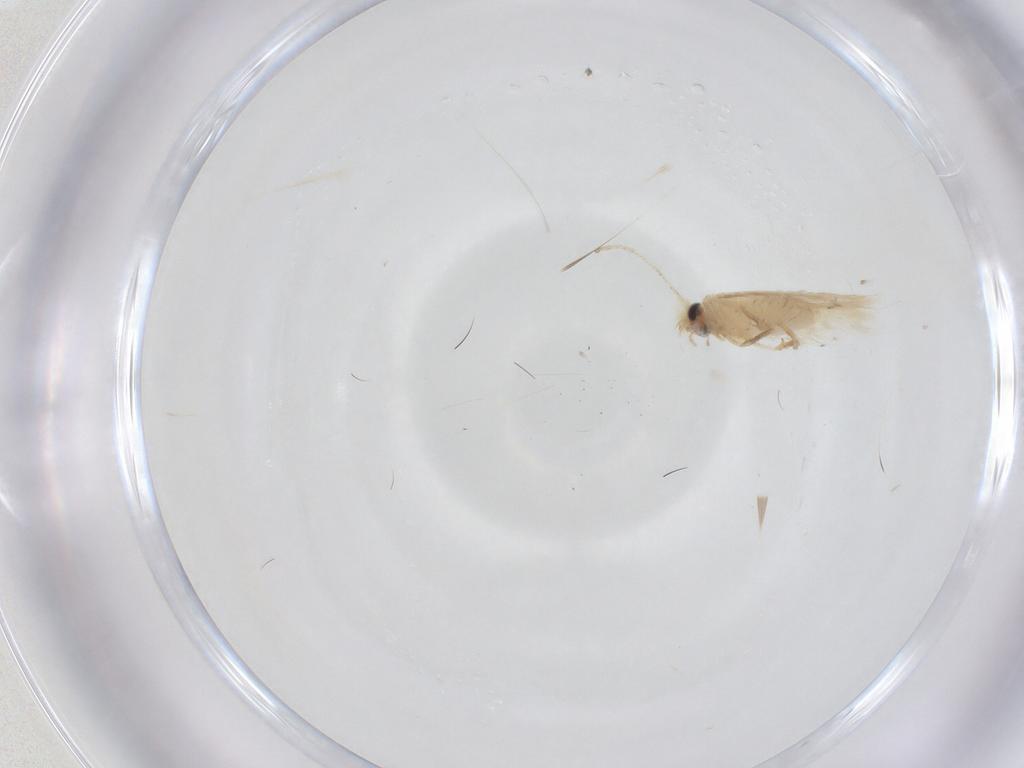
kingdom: Animalia
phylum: Arthropoda
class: Insecta
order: Lepidoptera
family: Nepticulidae
